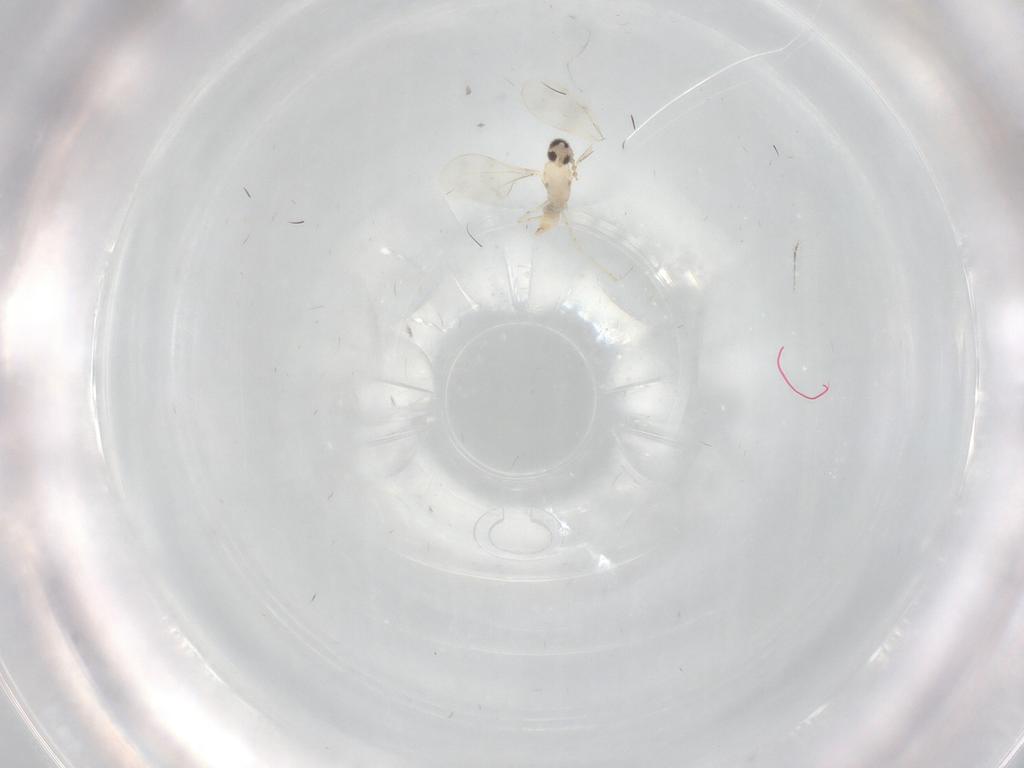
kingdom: Animalia
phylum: Arthropoda
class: Insecta
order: Diptera
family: Cecidomyiidae
